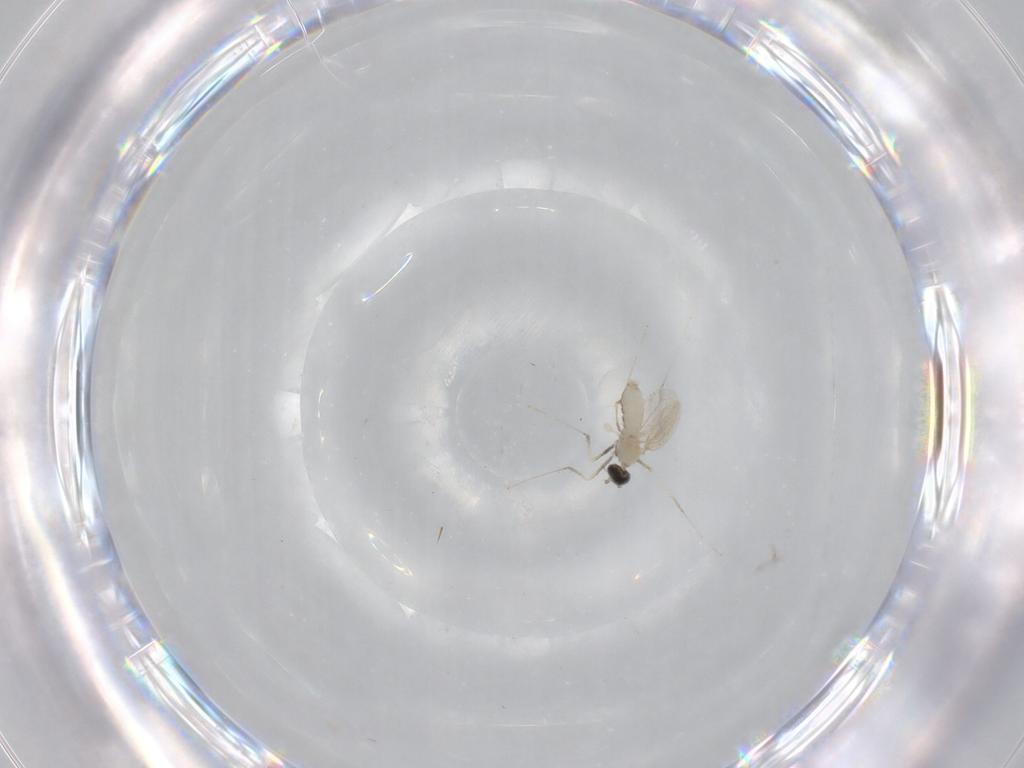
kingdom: Animalia
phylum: Arthropoda
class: Insecta
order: Diptera
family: Cecidomyiidae
